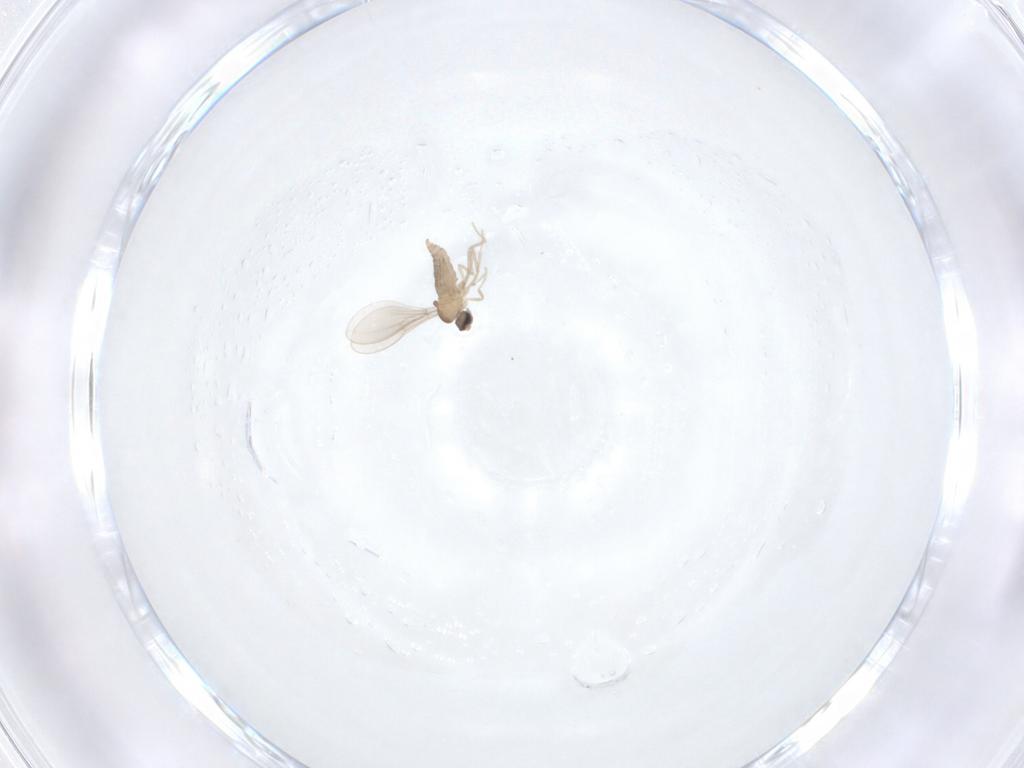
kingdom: Animalia
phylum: Arthropoda
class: Insecta
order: Diptera
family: Cecidomyiidae
